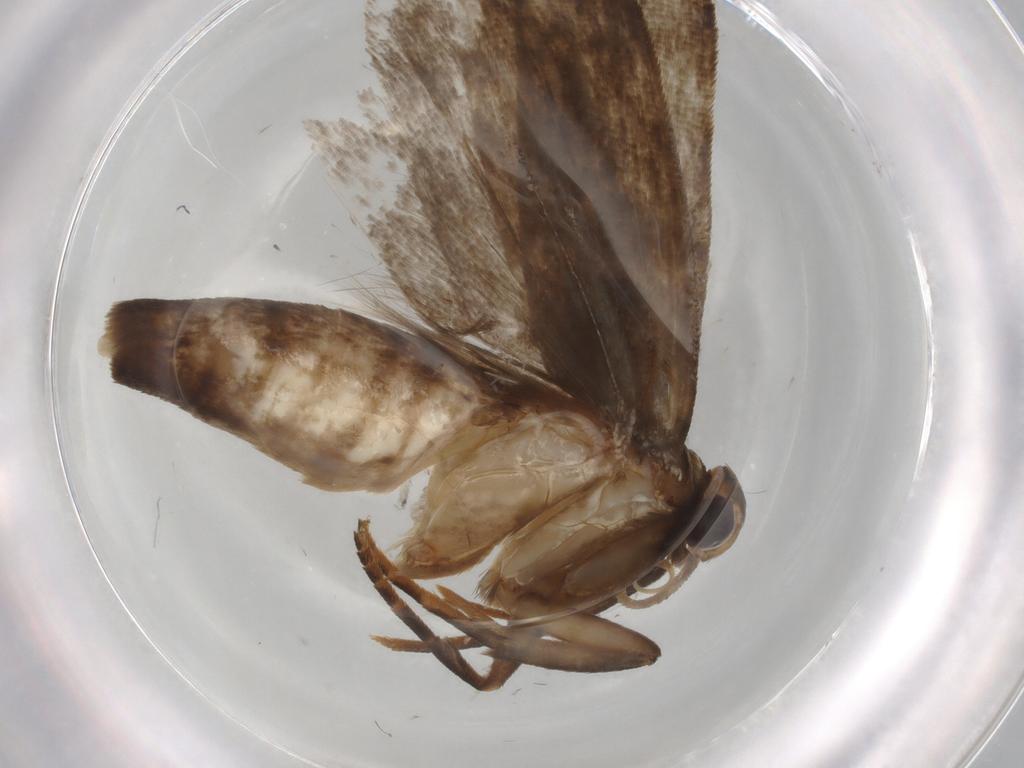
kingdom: Animalia
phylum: Arthropoda
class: Insecta
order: Lepidoptera
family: Gelechiidae
